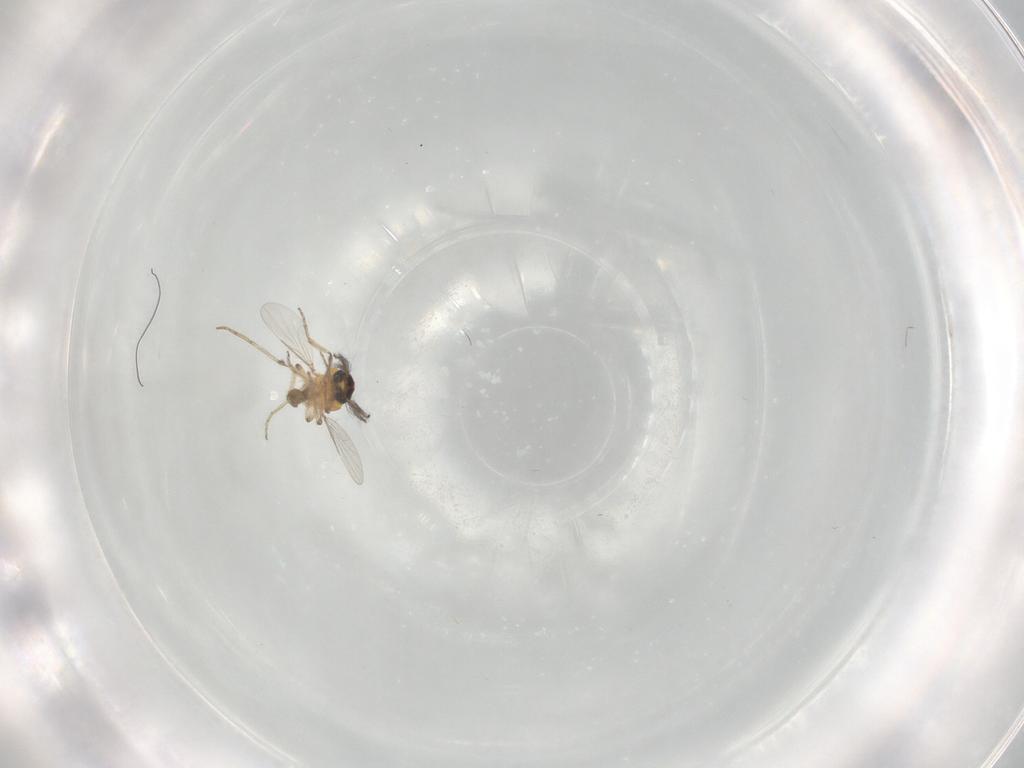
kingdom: Animalia
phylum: Arthropoda
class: Insecta
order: Diptera
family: Ceratopogonidae
